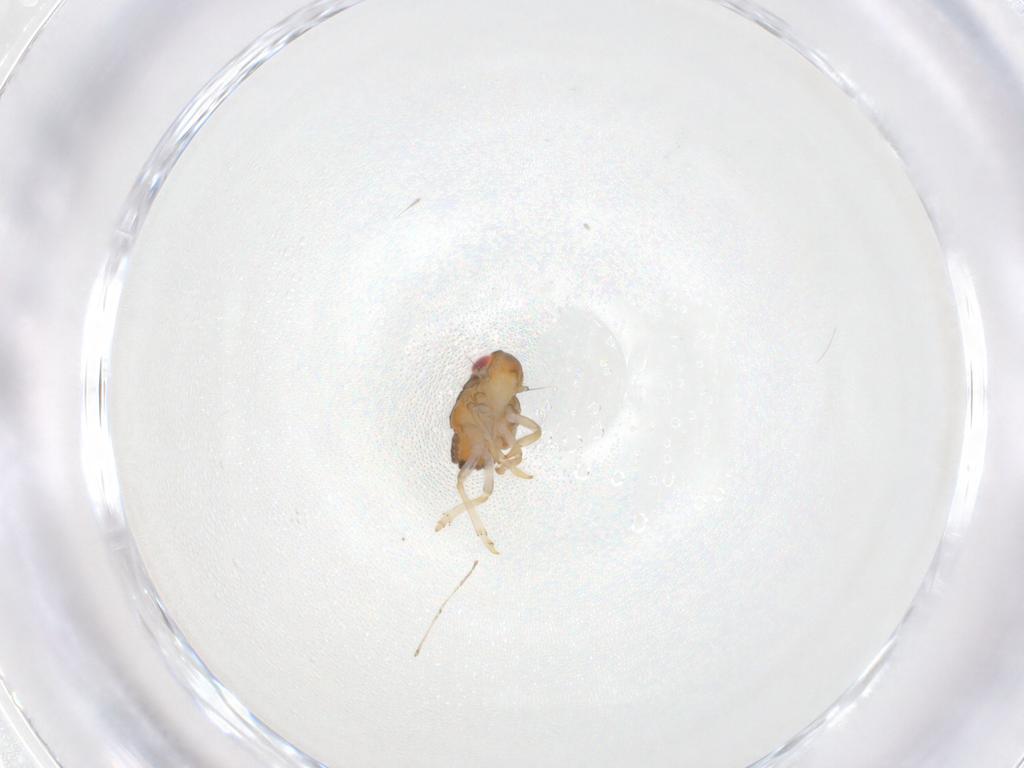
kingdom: Animalia
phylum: Arthropoda
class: Insecta
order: Hemiptera
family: Issidae
